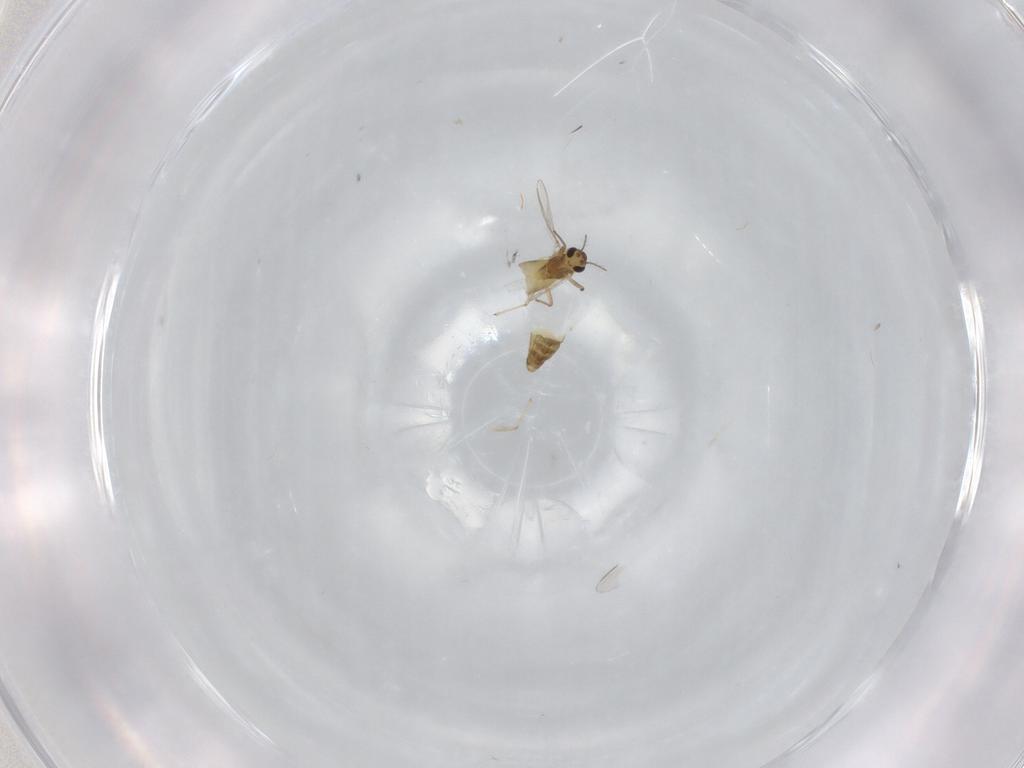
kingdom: Animalia
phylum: Arthropoda
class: Insecta
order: Diptera
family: Chironomidae
